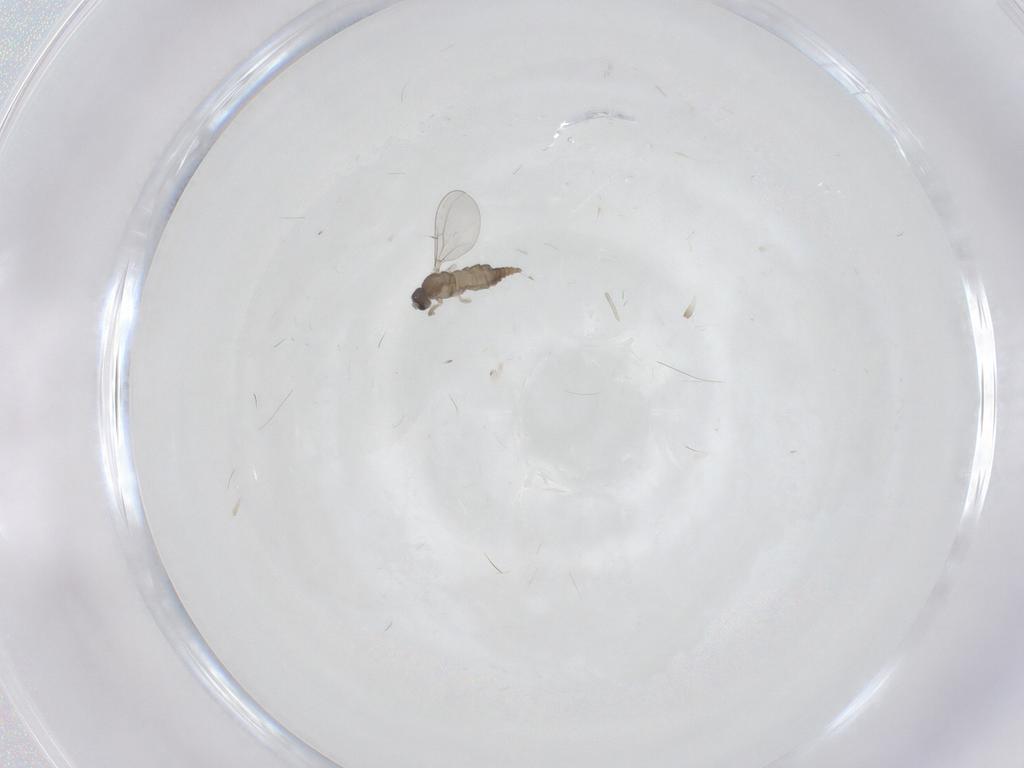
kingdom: Animalia
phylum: Arthropoda
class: Insecta
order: Diptera
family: Cecidomyiidae
